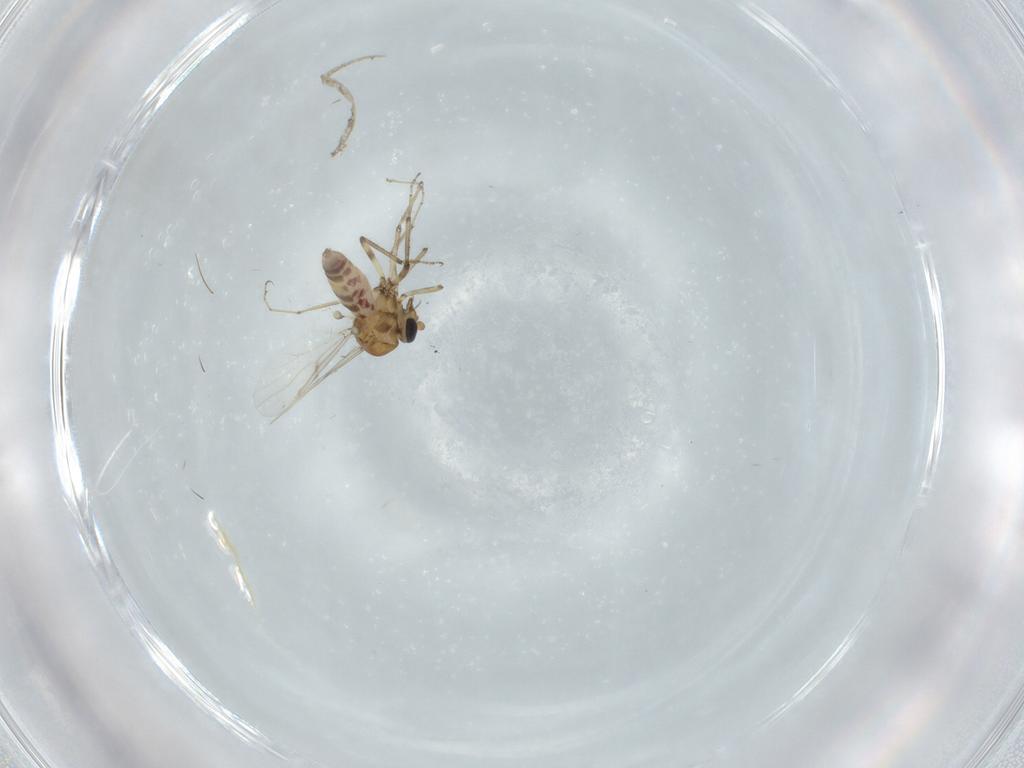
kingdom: Animalia
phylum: Arthropoda
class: Insecta
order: Diptera
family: Ceratopogonidae
